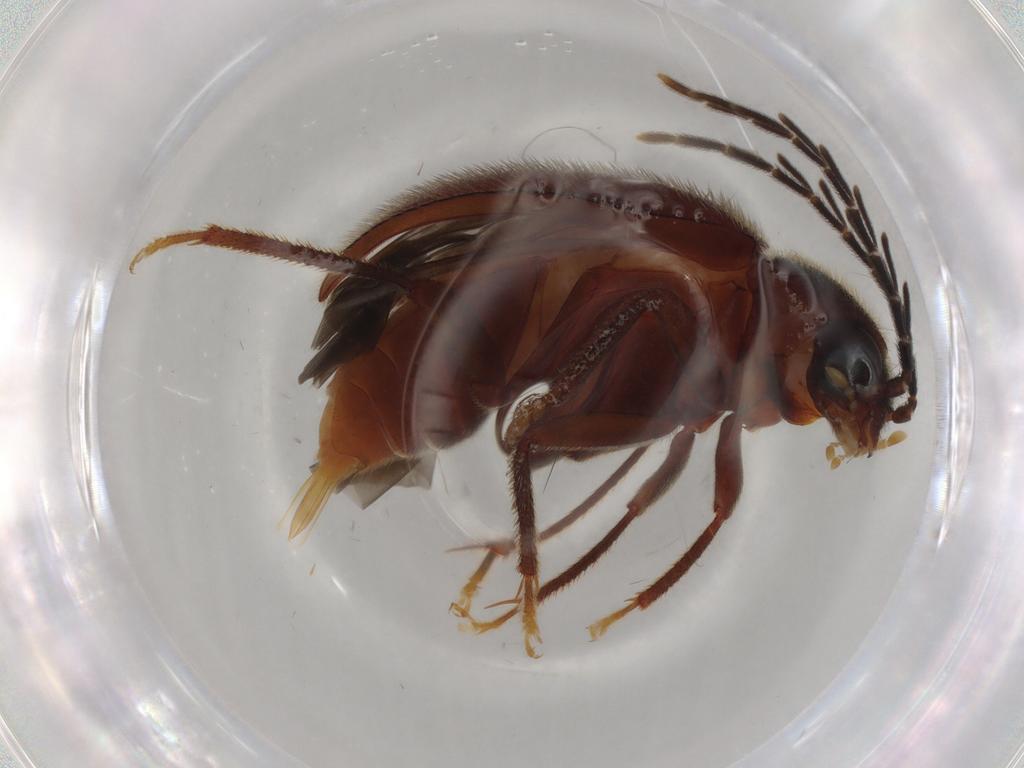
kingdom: Animalia
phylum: Arthropoda
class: Insecta
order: Coleoptera
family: Ptilodactylidae
